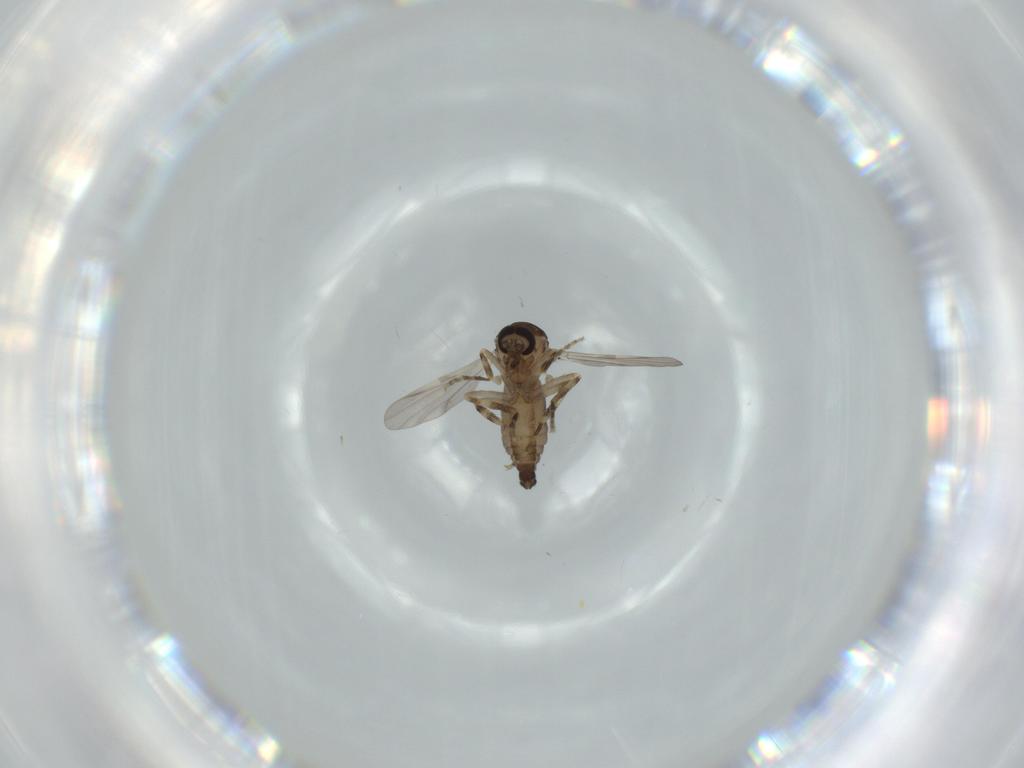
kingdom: Animalia
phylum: Arthropoda
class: Insecta
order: Diptera
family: Ceratopogonidae
